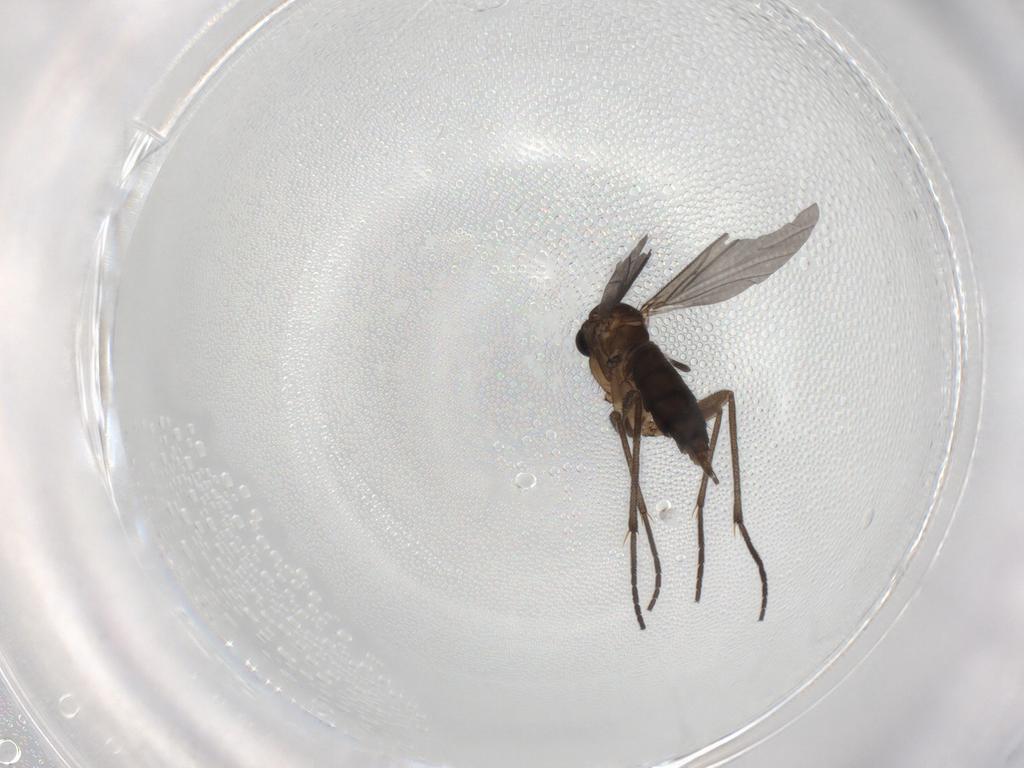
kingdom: Animalia
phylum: Arthropoda
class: Insecta
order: Diptera
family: Sciaridae
